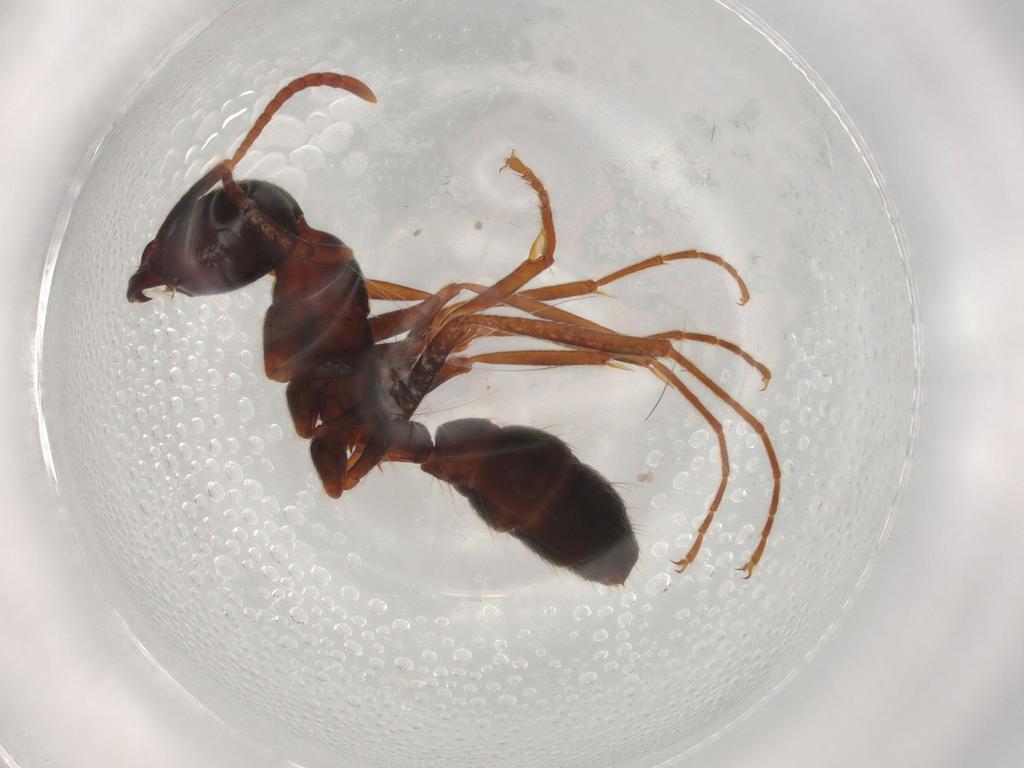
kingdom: Animalia
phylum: Arthropoda
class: Insecta
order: Hymenoptera
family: Formicidae
